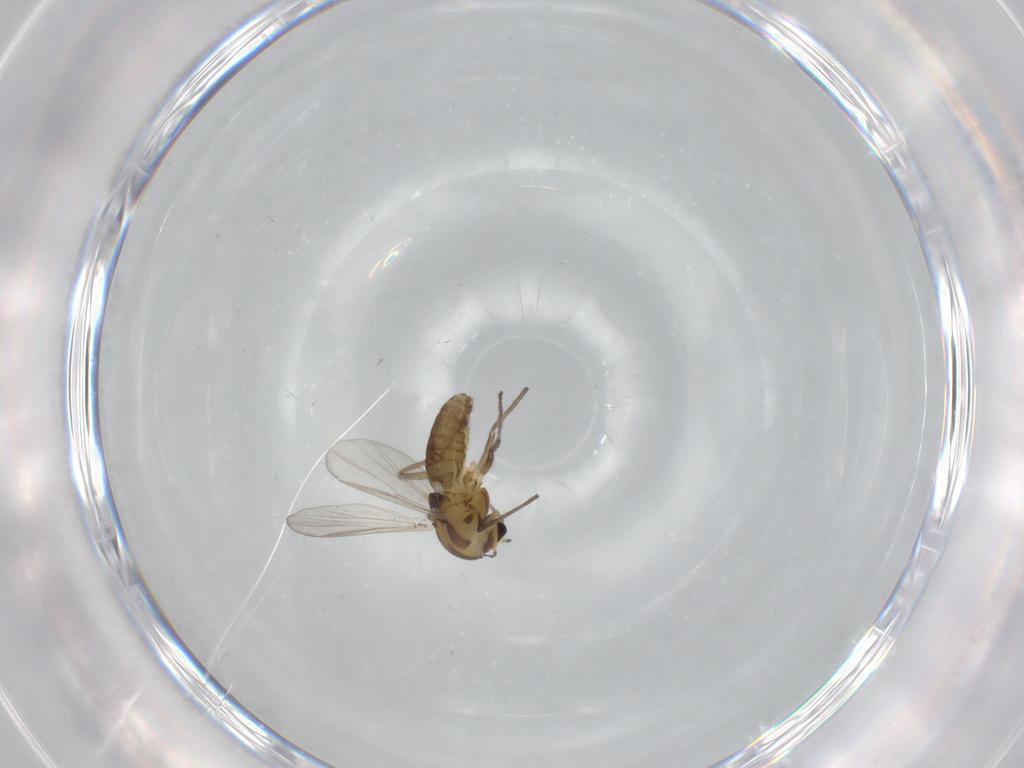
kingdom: Animalia
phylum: Arthropoda
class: Insecta
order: Diptera
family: Chironomidae
